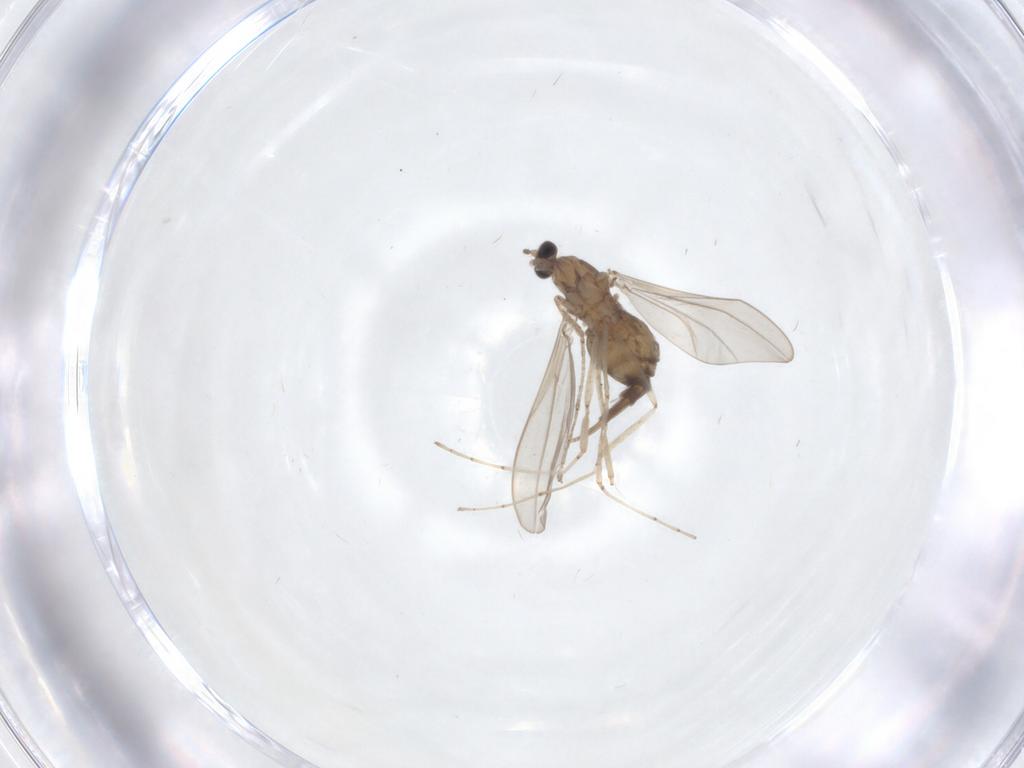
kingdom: Animalia
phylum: Arthropoda
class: Insecta
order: Diptera
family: Cecidomyiidae
